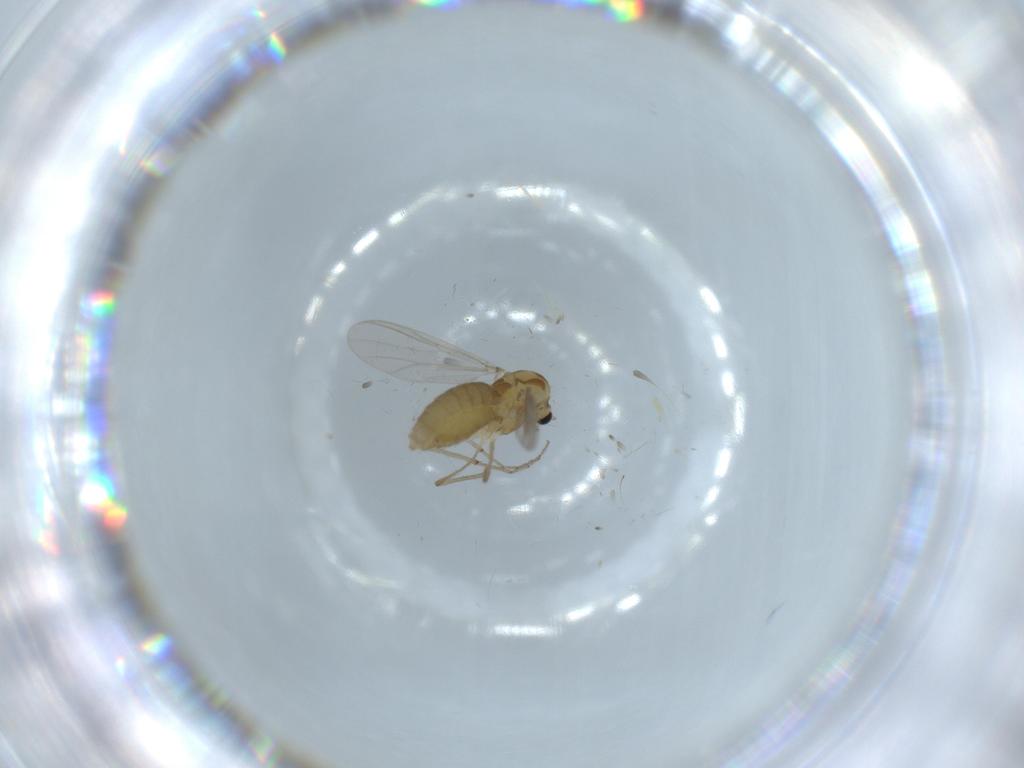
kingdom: Animalia
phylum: Arthropoda
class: Insecta
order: Diptera
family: Chironomidae
